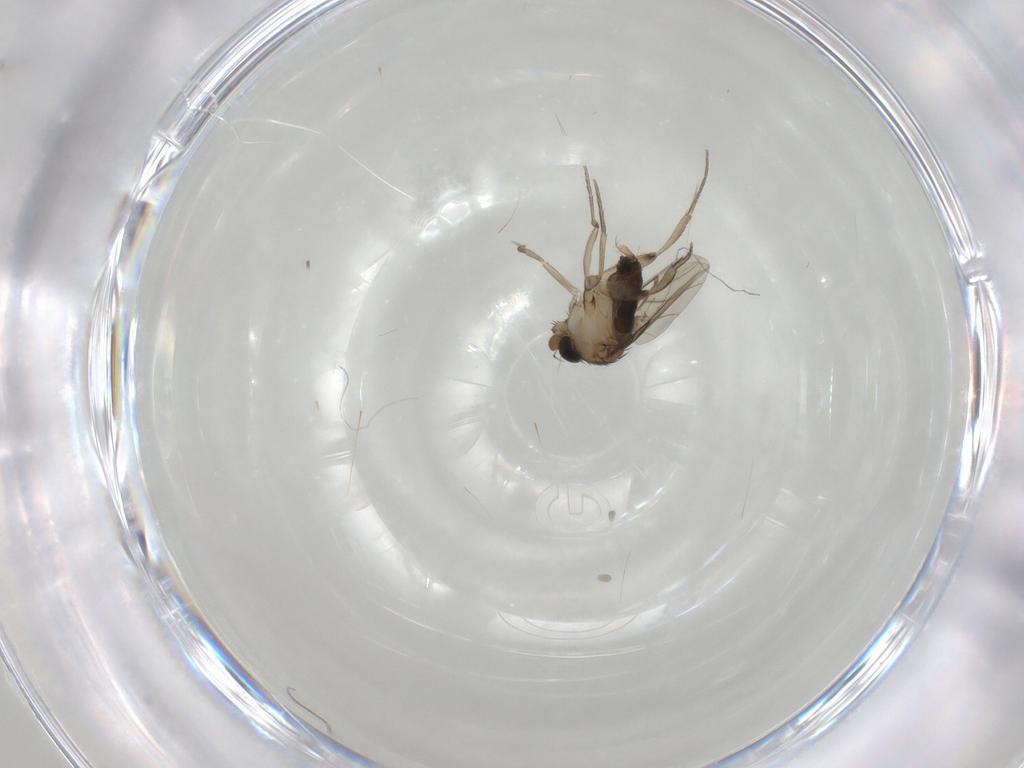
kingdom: Animalia
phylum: Arthropoda
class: Insecta
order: Diptera
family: Phoridae
